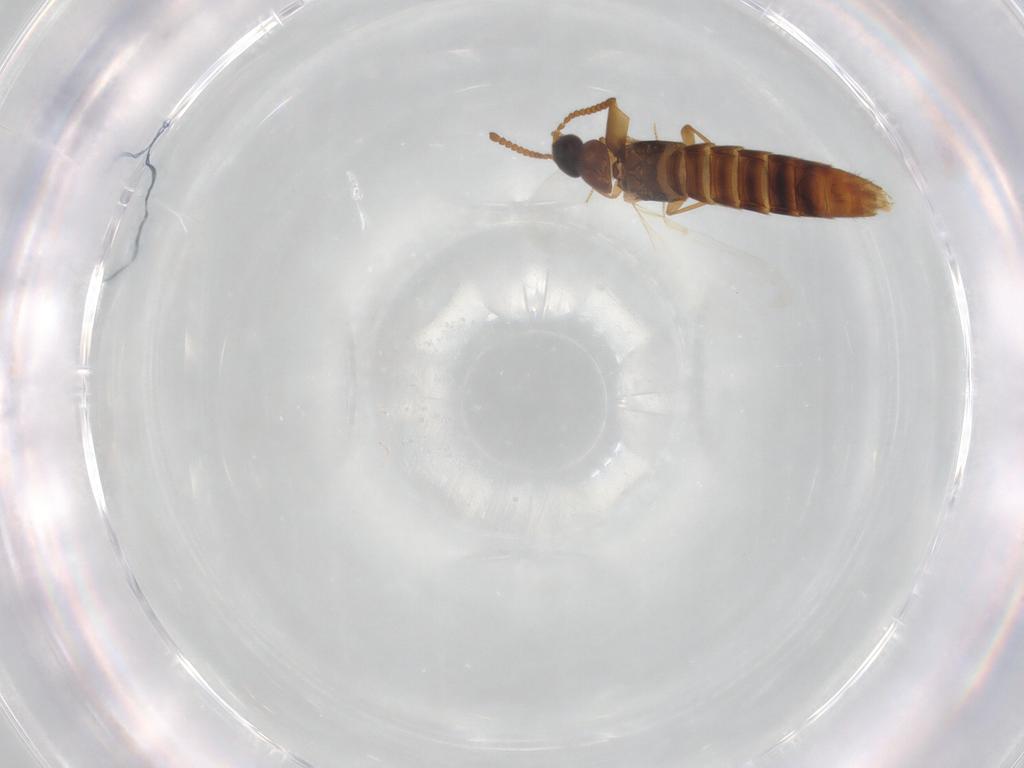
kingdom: Animalia
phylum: Arthropoda
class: Insecta
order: Coleoptera
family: Staphylinidae
